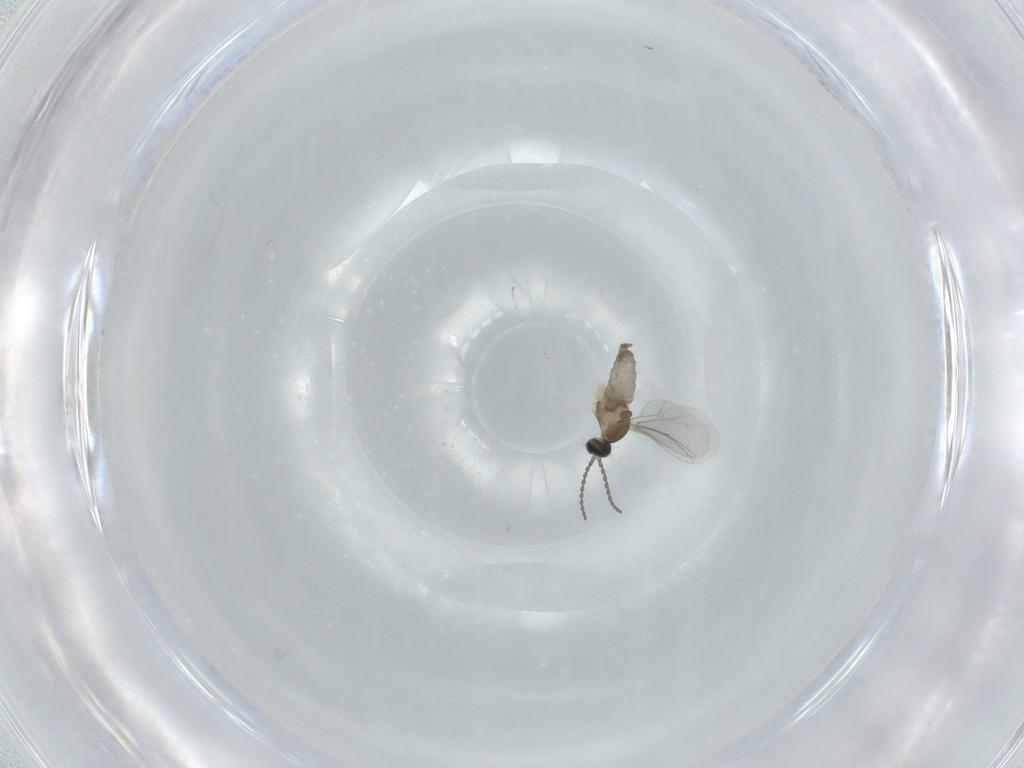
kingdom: Animalia
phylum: Arthropoda
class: Insecta
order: Diptera
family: Cecidomyiidae
